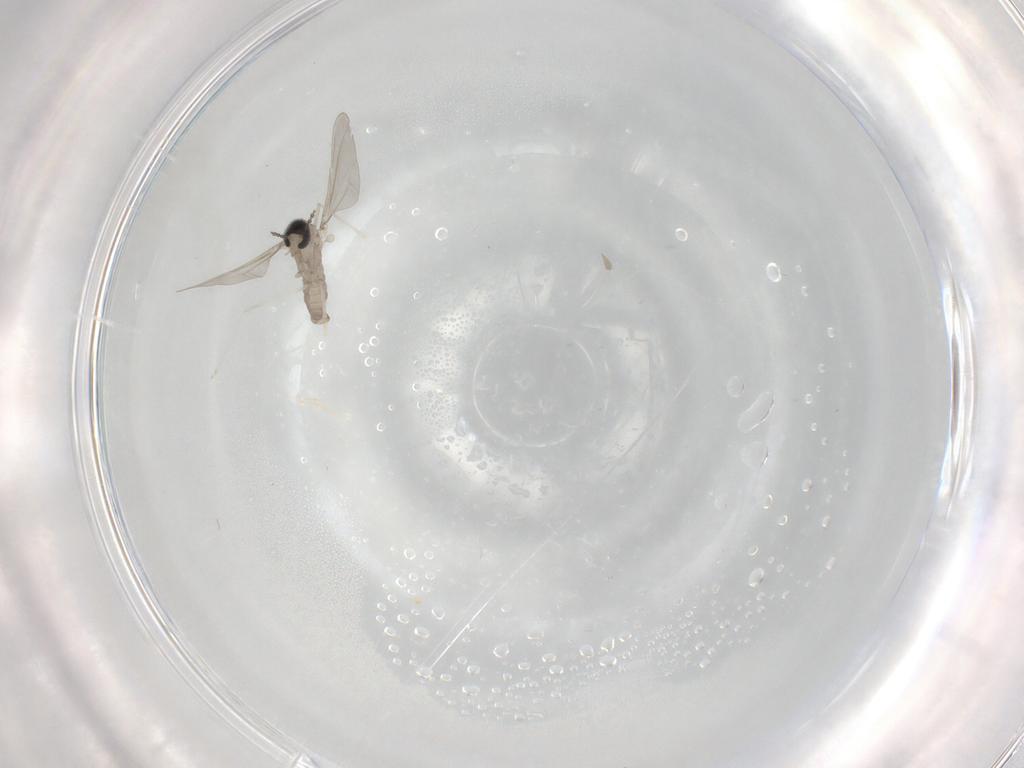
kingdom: Animalia
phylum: Arthropoda
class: Insecta
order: Diptera
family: Cecidomyiidae
